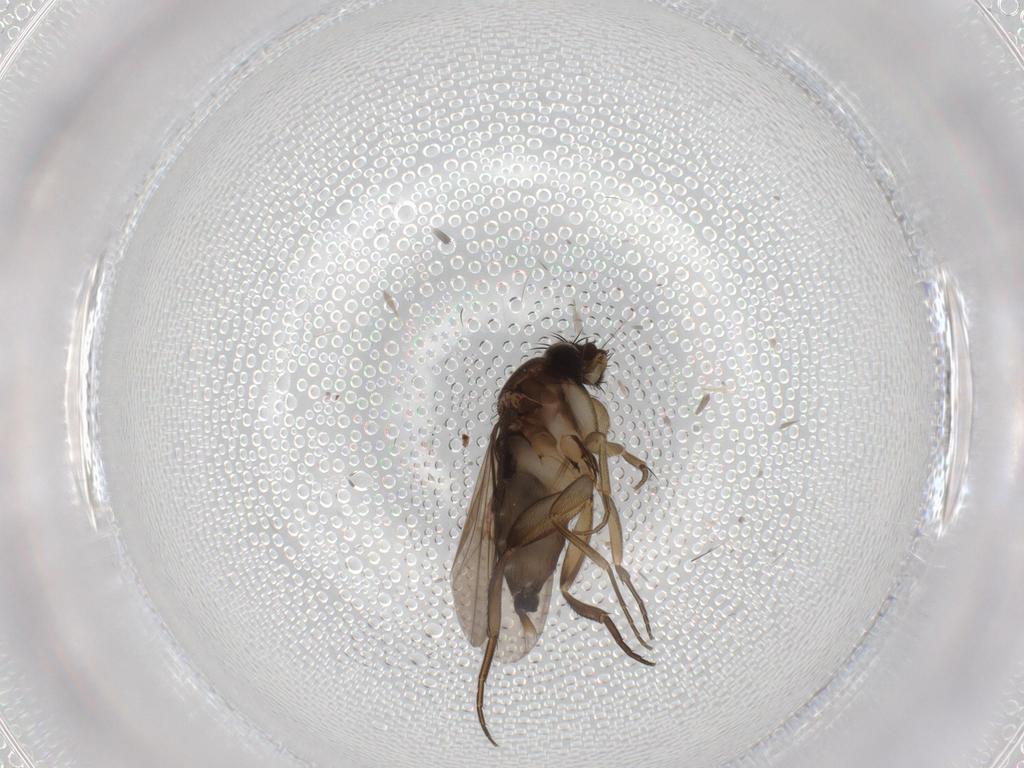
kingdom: Animalia
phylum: Arthropoda
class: Insecta
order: Diptera
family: Phoridae
